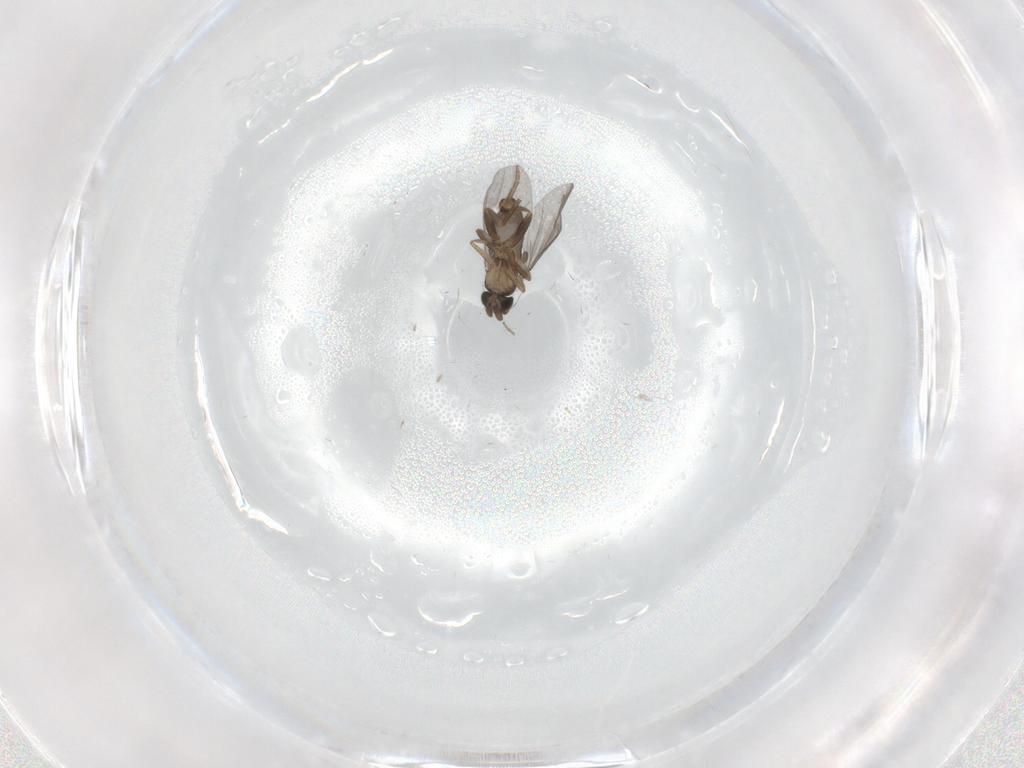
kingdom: Animalia
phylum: Arthropoda
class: Insecta
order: Diptera
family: Phoridae
